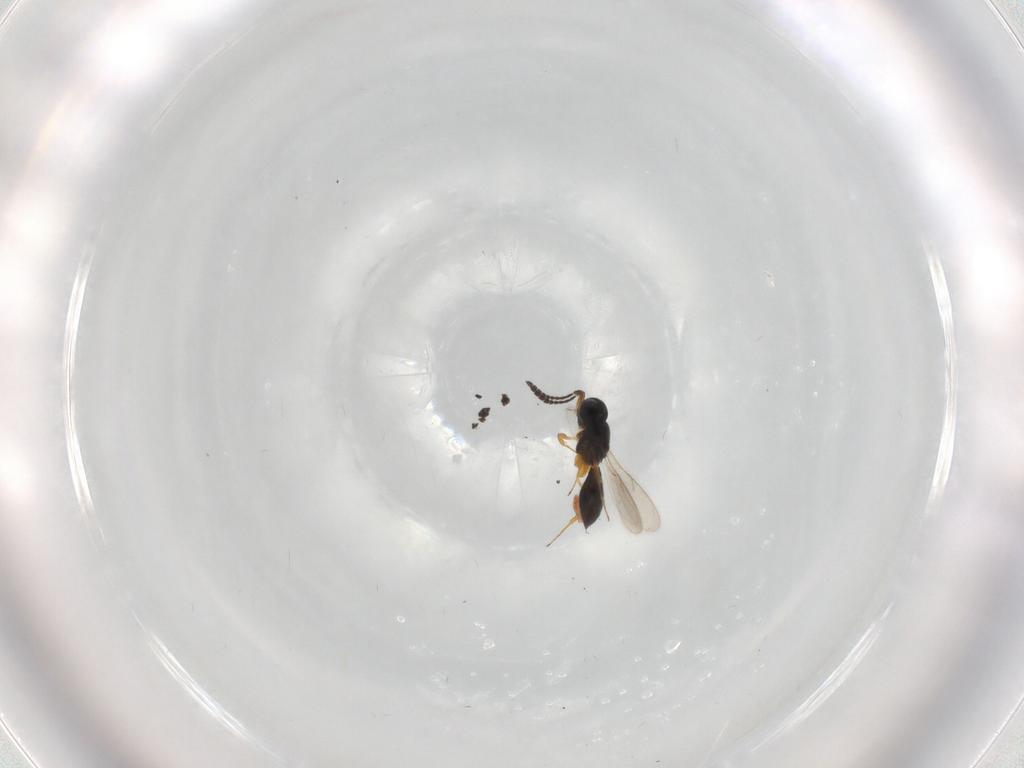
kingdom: Animalia
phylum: Arthropoda
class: Insecta
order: Hymenoptera
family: Scelionidae
